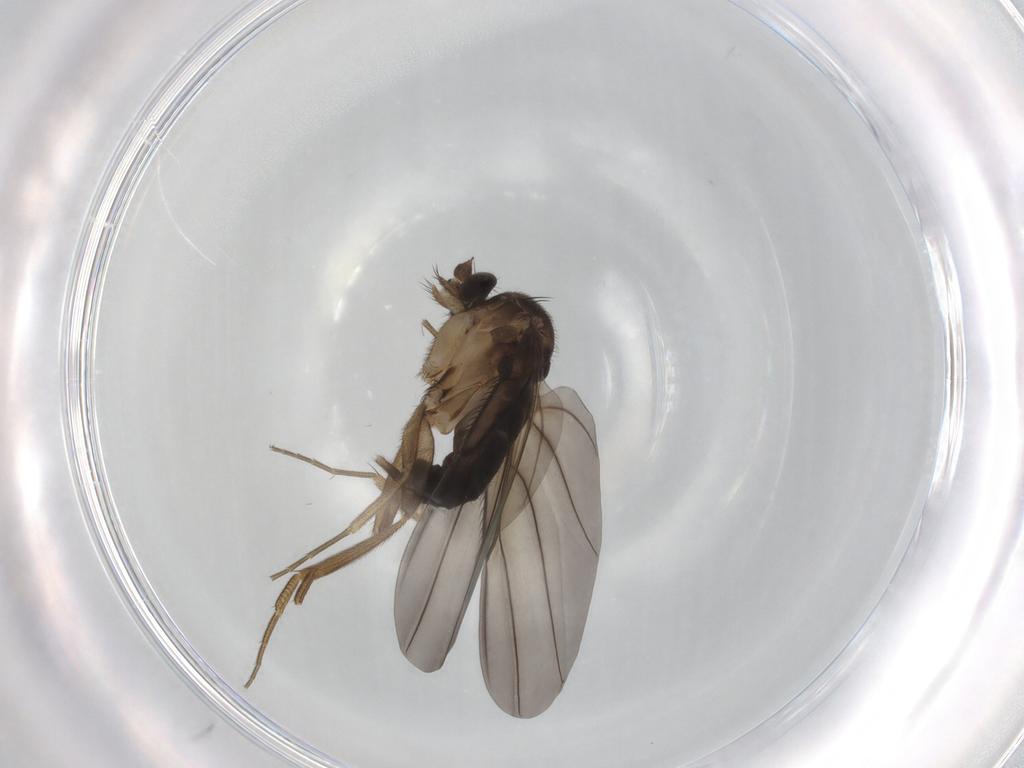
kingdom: Animalia
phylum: Arthropoda
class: Insecta
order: Diptera
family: Phoridae
